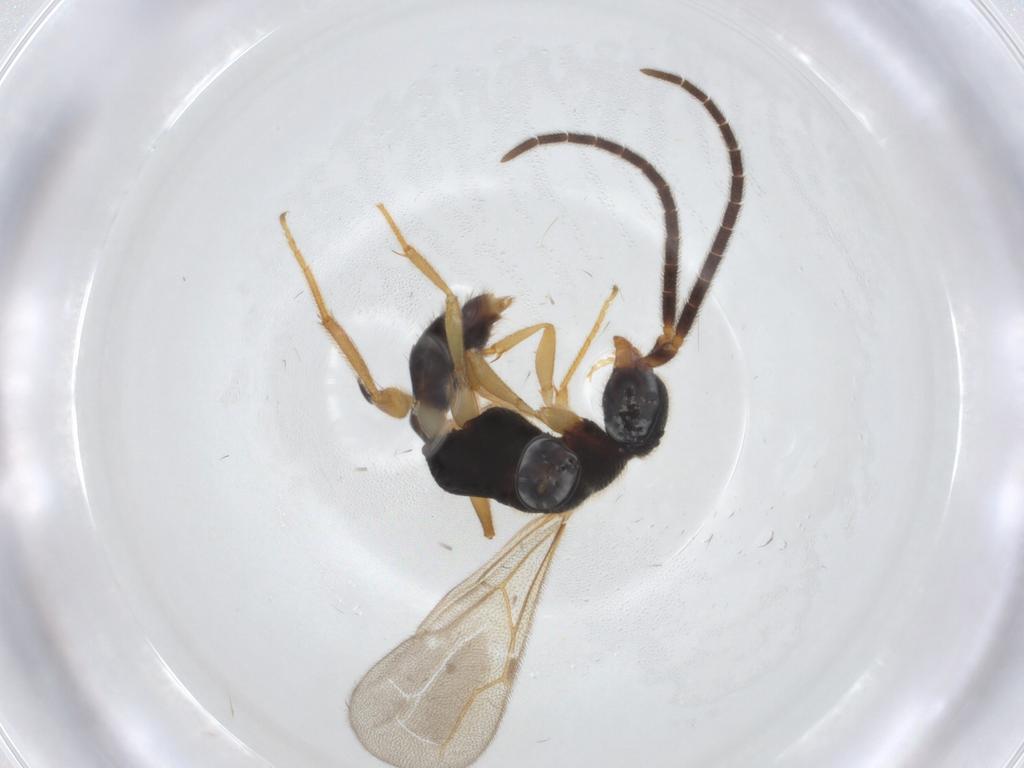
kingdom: Animalia
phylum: Arthropoda
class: Insecta
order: Hymenoptera
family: Bethylidae
